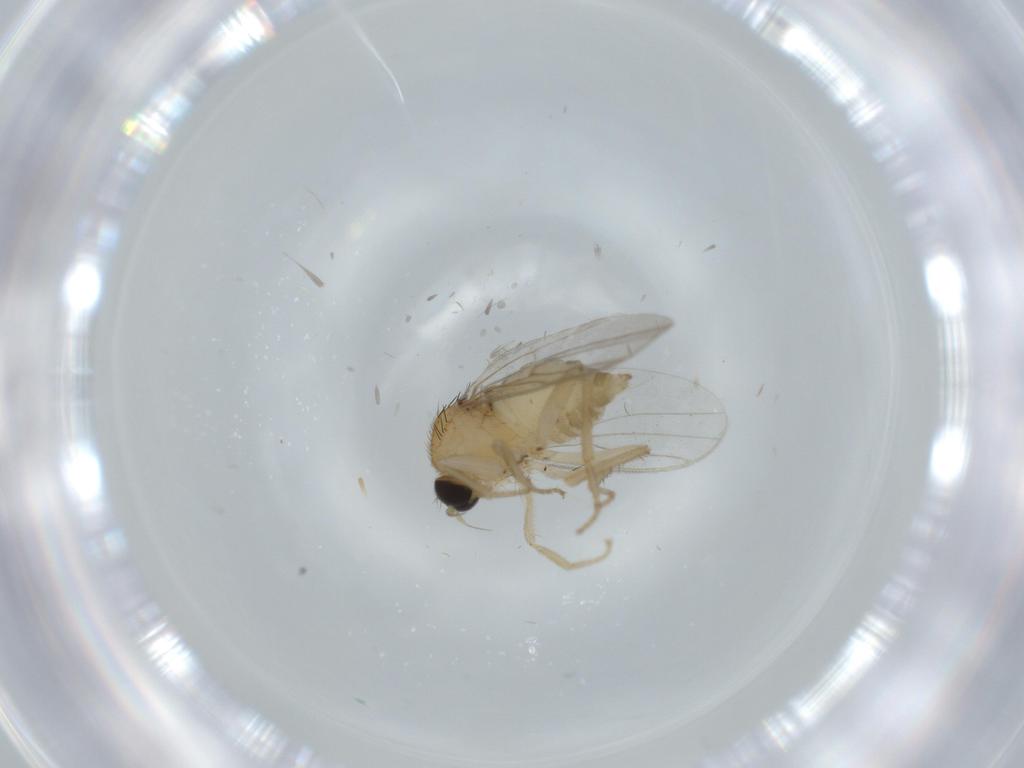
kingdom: Animalia
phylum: Arthropoda
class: Insecta
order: Diptera
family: Hybotidae
